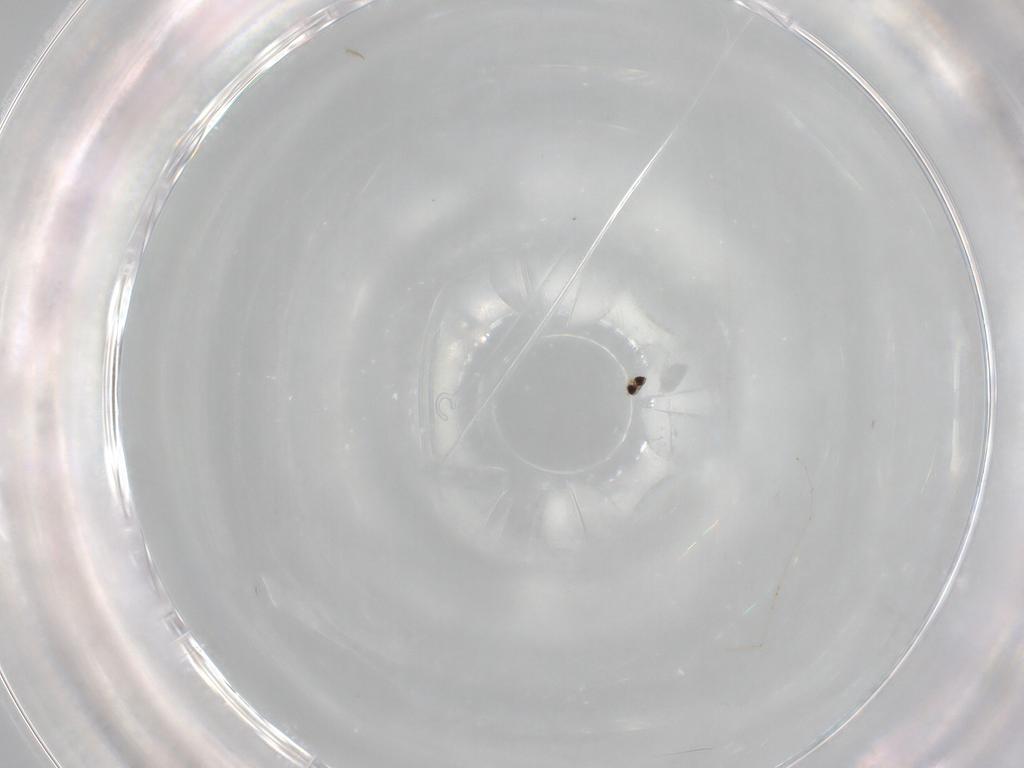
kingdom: Animalia
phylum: Arthropoda
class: Insecta
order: Diptera
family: Cecidomyiidae
